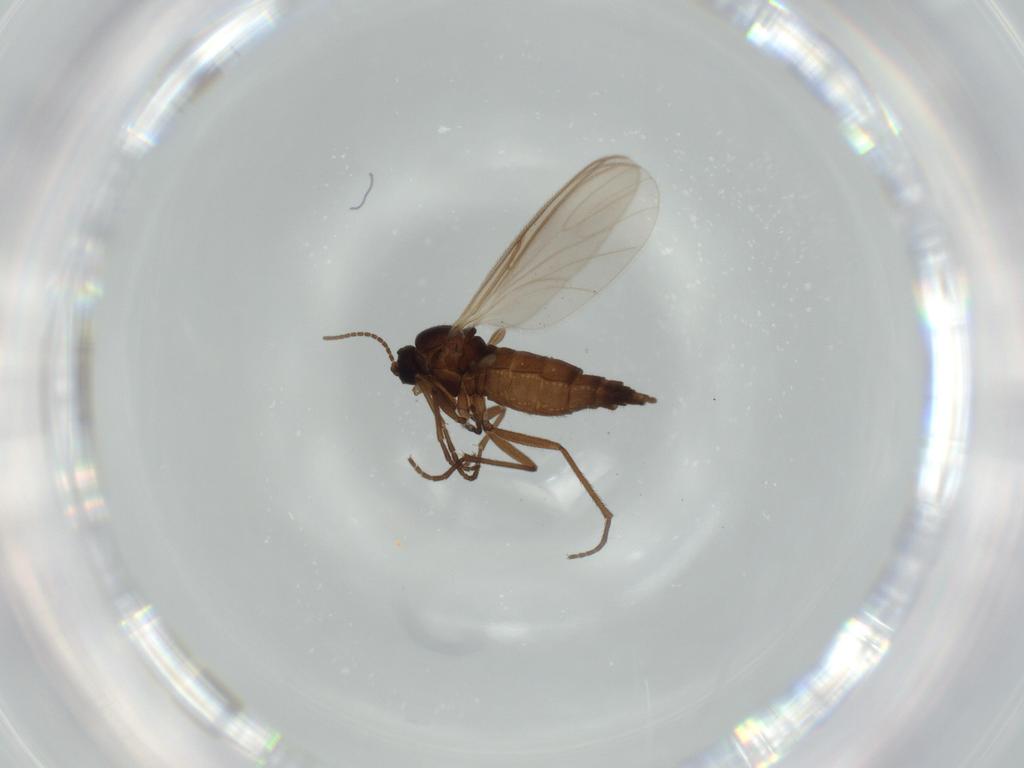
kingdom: Animalia
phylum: Arthropoda
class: Insecta
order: Diptera
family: Sciaridae
